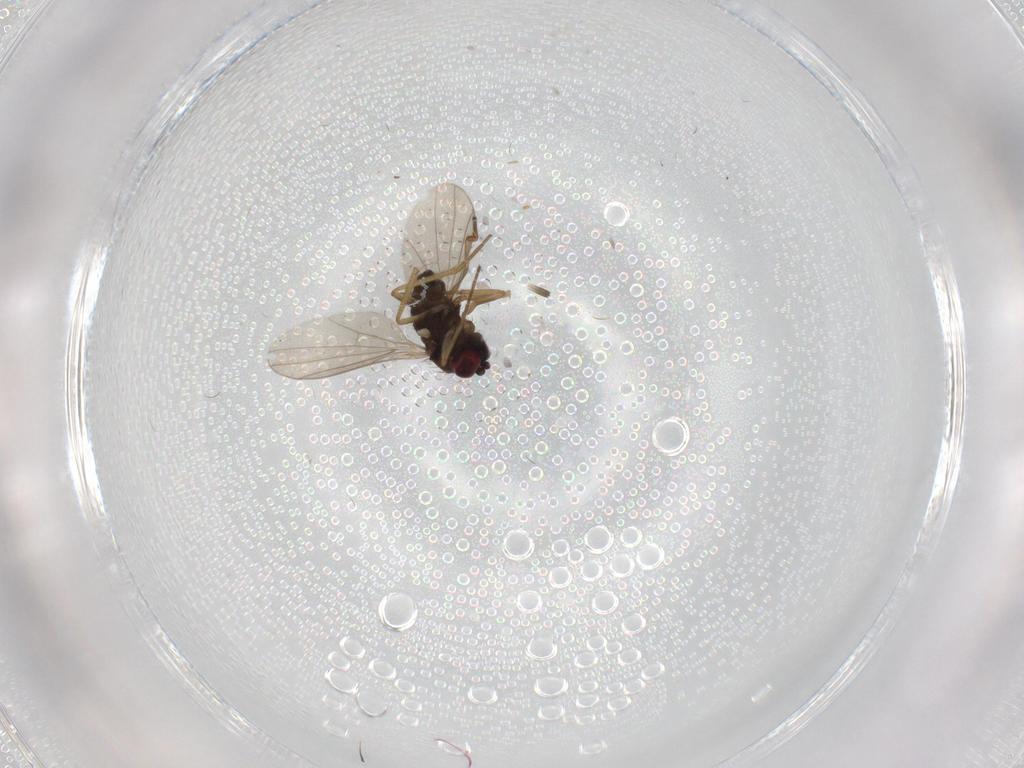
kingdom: Animalia
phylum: Arthropoda
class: Insecta
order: Diptera
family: Dolichopodidae
